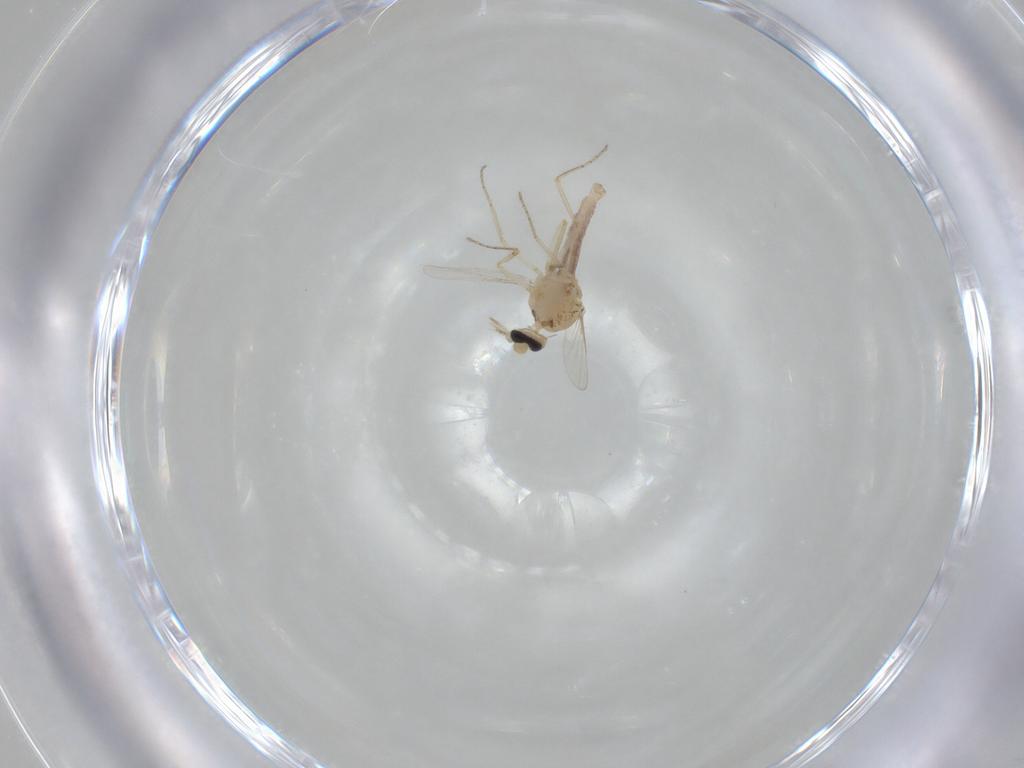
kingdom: Animalia
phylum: Arthropoda
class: Insecta
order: Diptera
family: Ceratopogonidae
